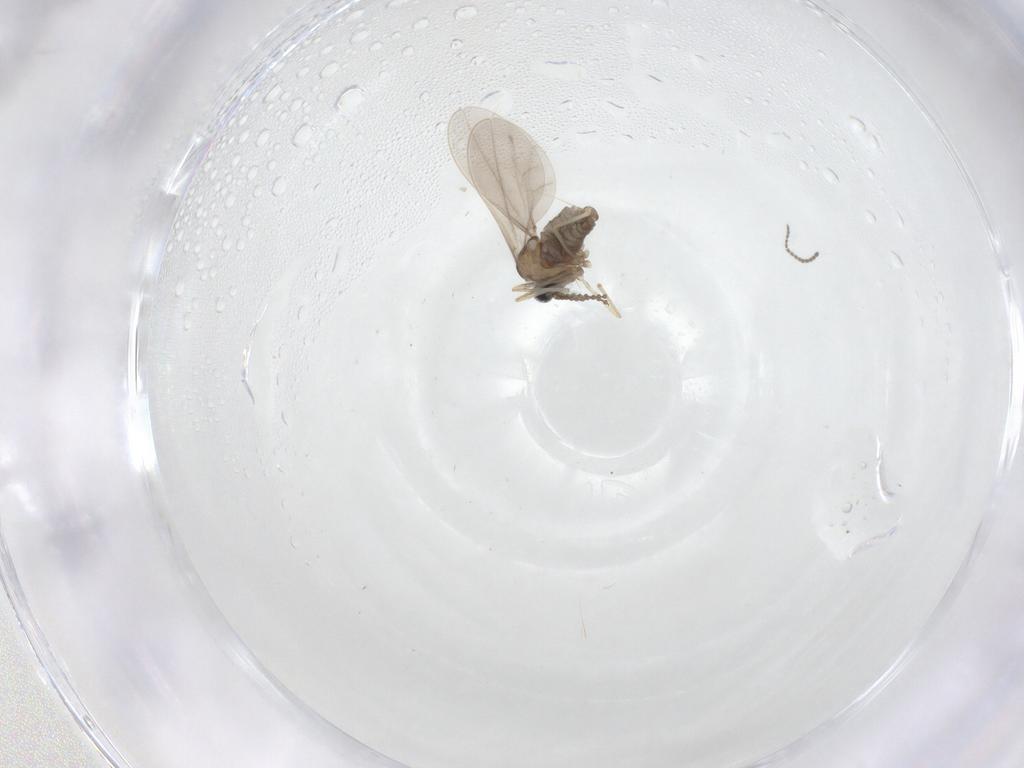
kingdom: Animalia
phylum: Arthropoda
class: Insecta
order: Diptera
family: Cecidomyiidae
